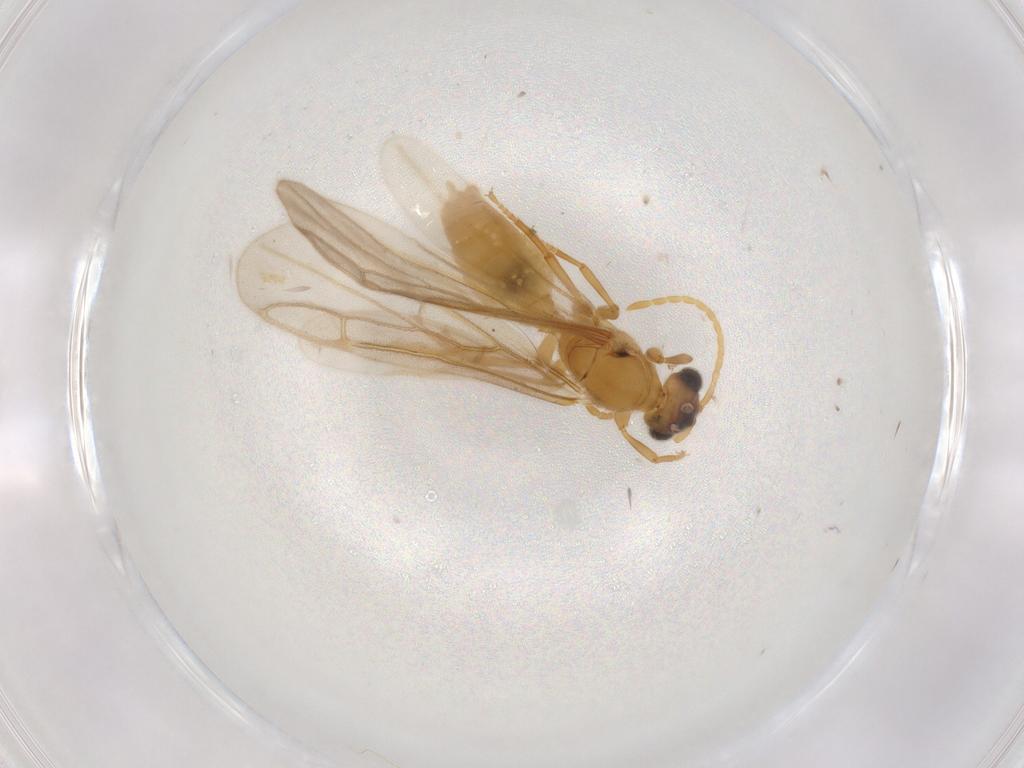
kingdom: Animalia
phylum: Arthropoda
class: Insecta
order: Hymenoptera
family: Formicidae
